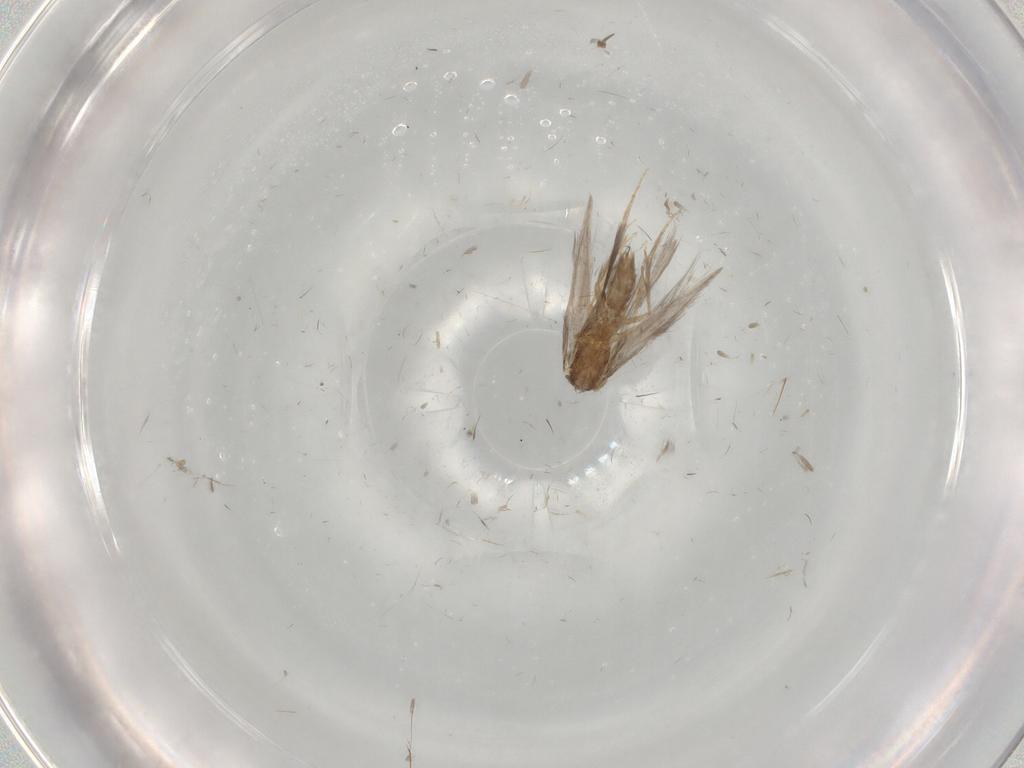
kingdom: Animalia
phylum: Arthropoda
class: Insecta
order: Trichoptera
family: Hydroptilidae
